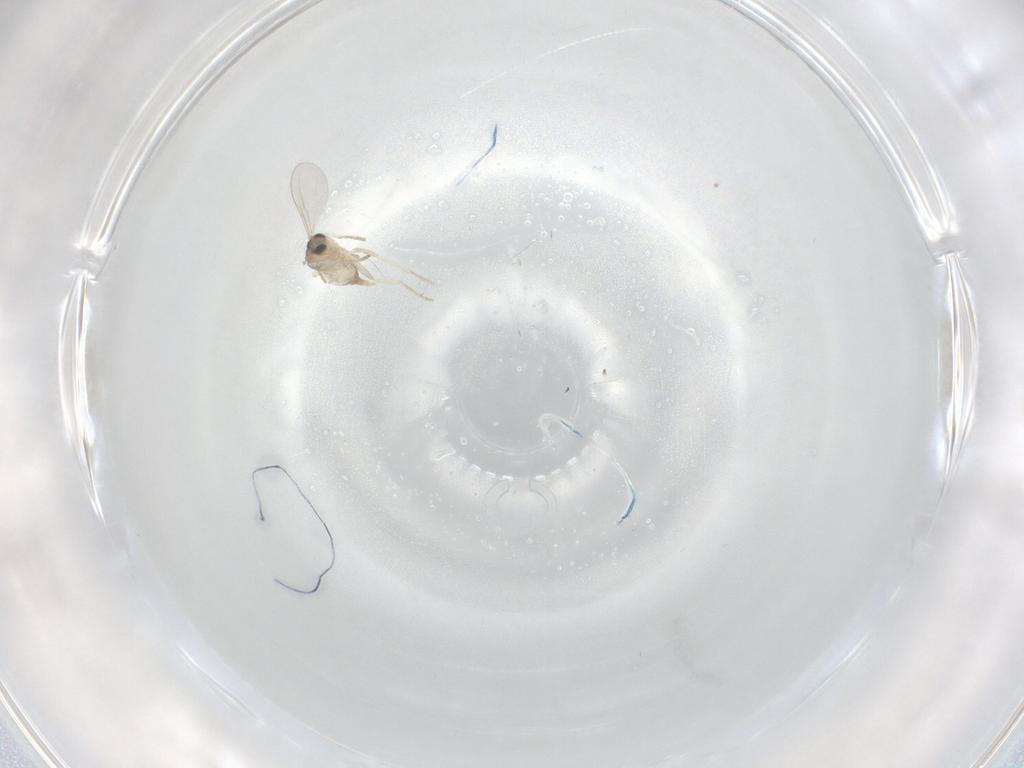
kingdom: Animalia
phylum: Arthropoda
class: Insecta
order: Diptera
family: Cecidomyiidae
